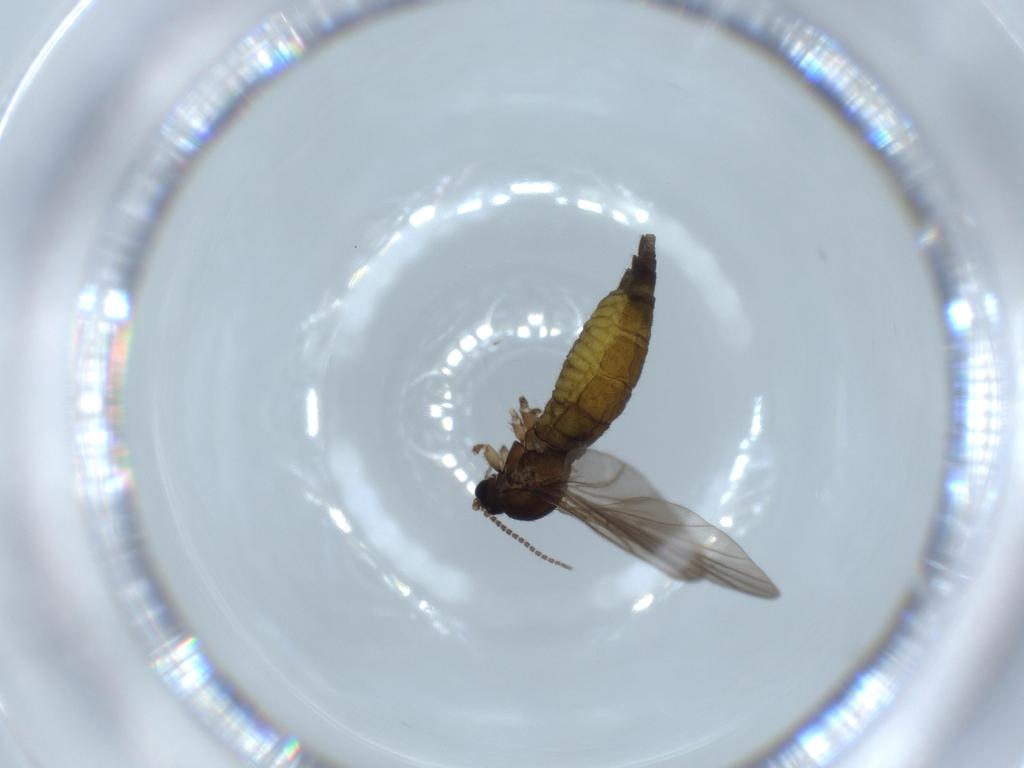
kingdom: Animalia
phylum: Arthropoda
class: Insecta
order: Diptera
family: Sciaridae
